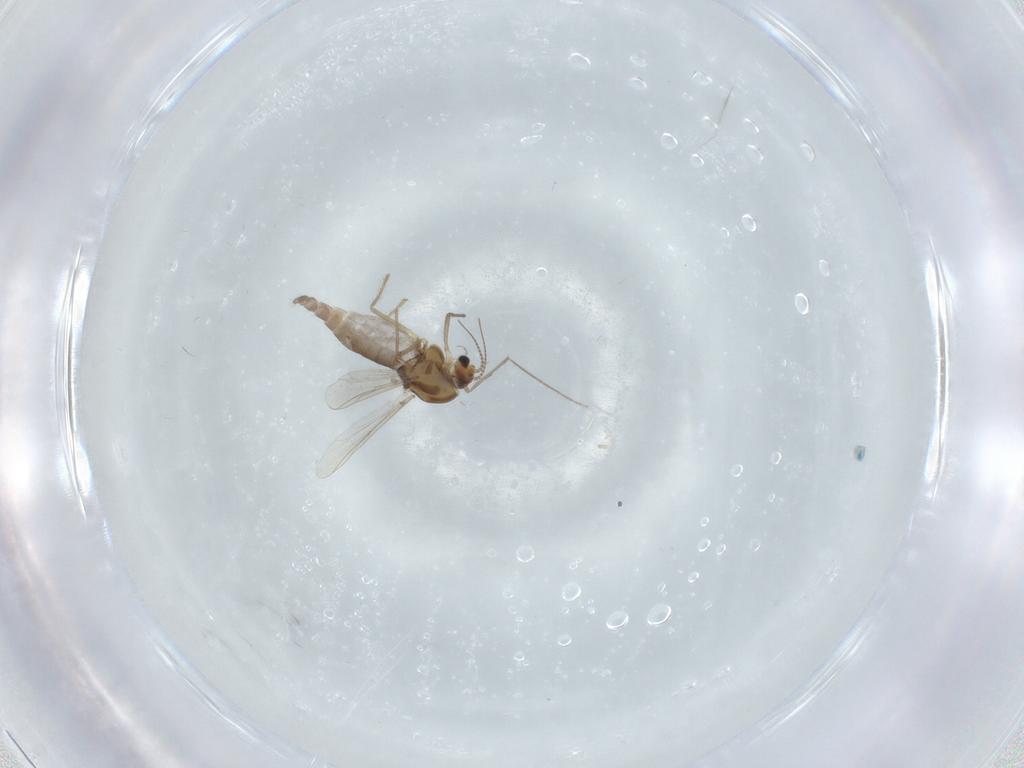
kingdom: Animalia
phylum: Arthropoda
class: Insecta
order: Diptera
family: Chironomidae
